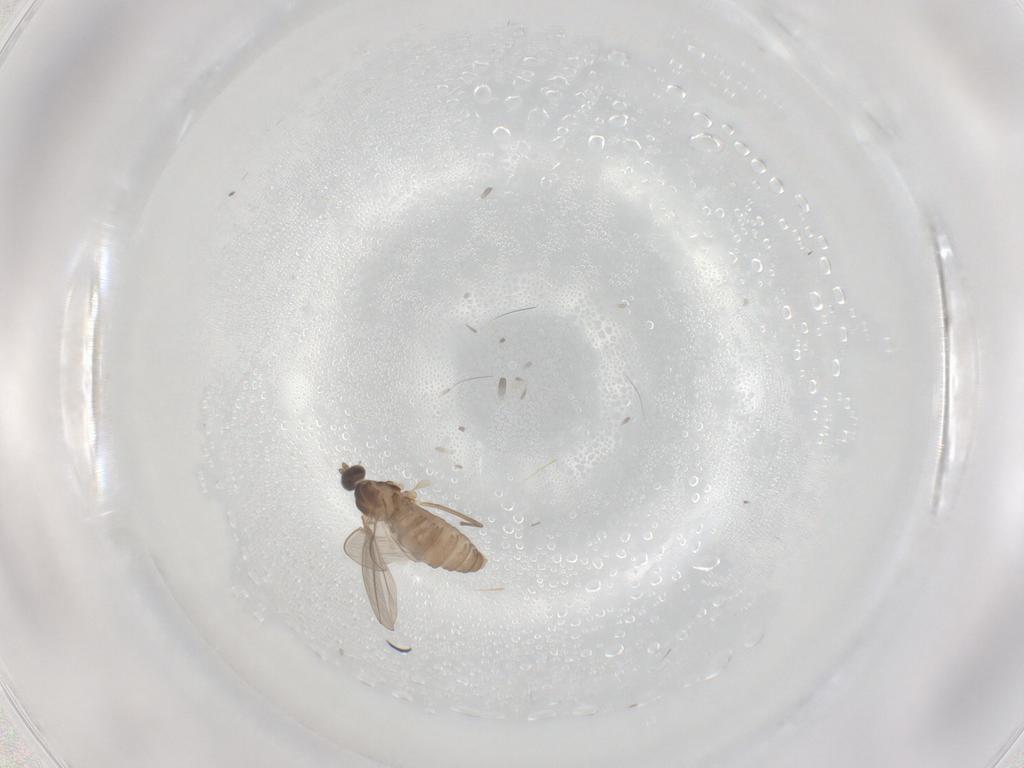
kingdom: Animalia
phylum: Arthropoda
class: Insecta
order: Diptera
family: Cecidomyiidae
